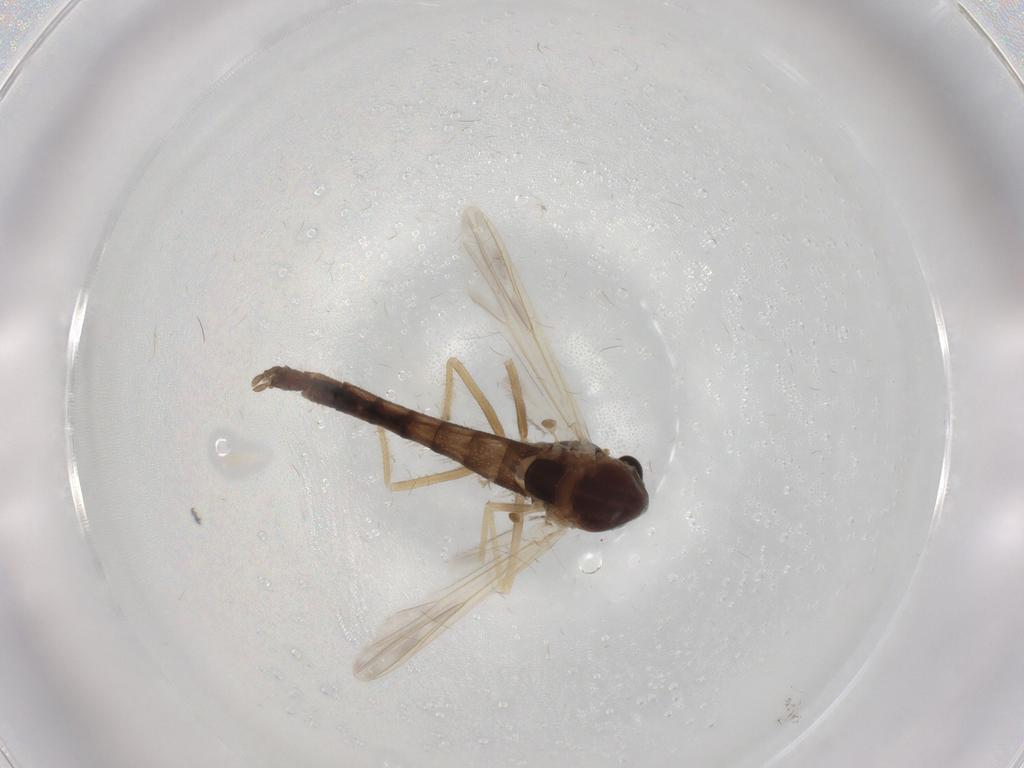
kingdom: Animalia
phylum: Arthropoda
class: Insecta
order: Diptera
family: Chironomidae
